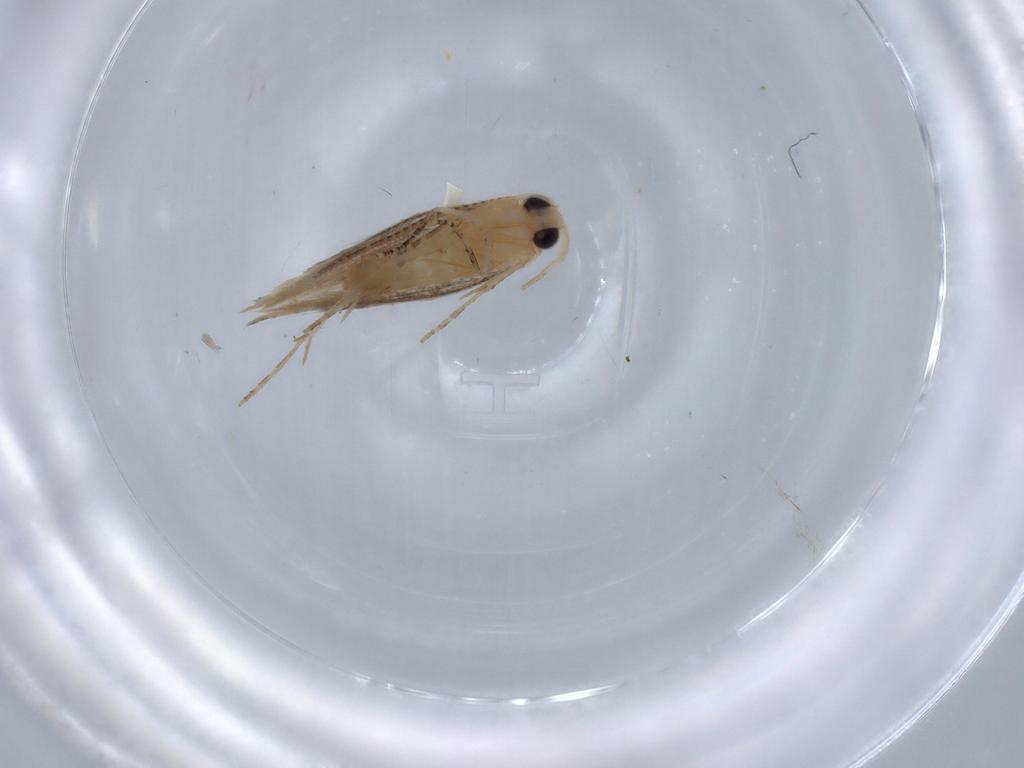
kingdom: Animalia
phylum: Arthropoda
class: Insecta
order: Lepidoptera
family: Bucculatricidae
